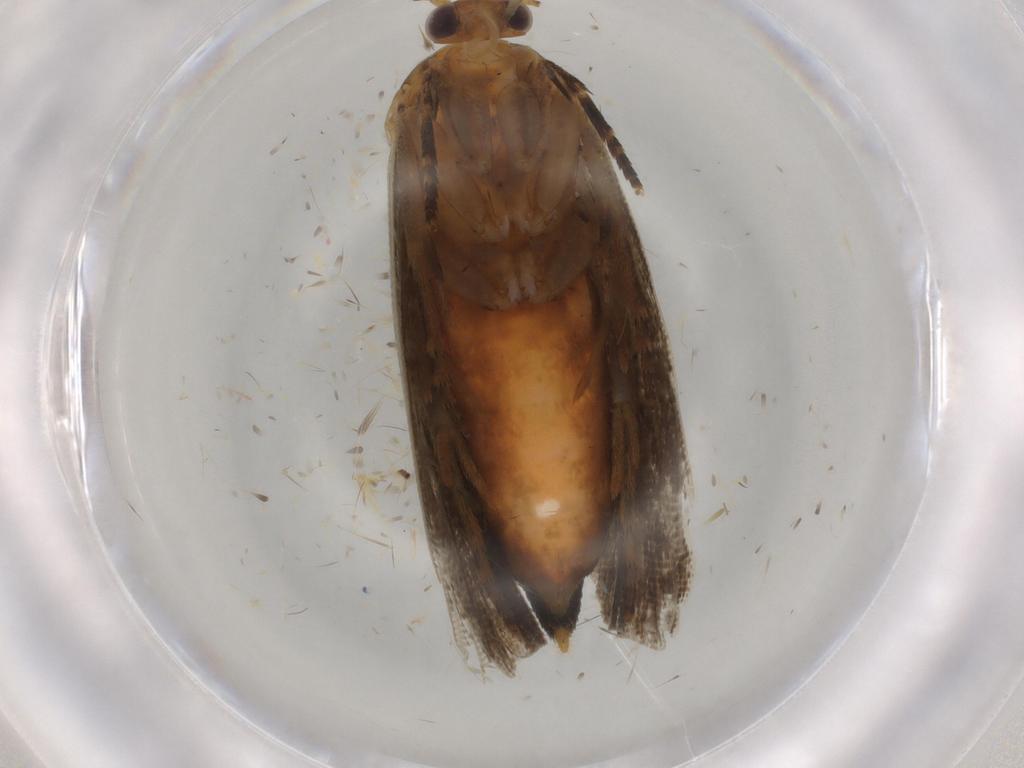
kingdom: Animalia
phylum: Arthropoda
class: Insecta
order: Lepidoptera
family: Tortricidae
